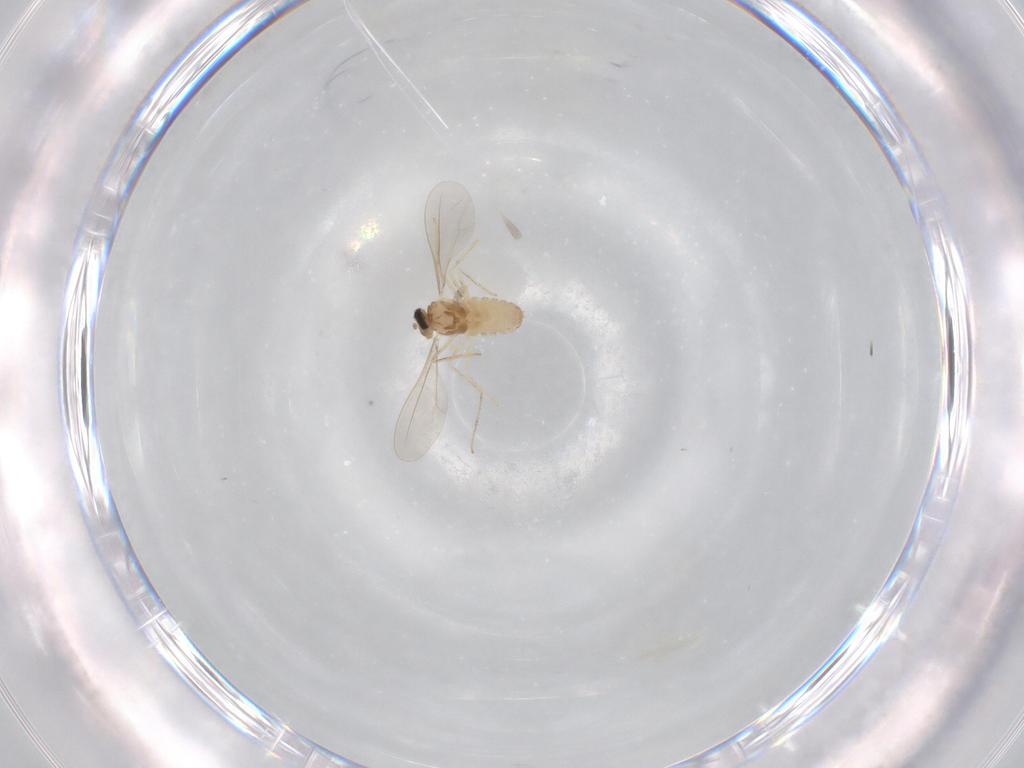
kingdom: Animalia
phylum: Arthropoda
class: Insecta
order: Diptera
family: Cecidomyiidae
